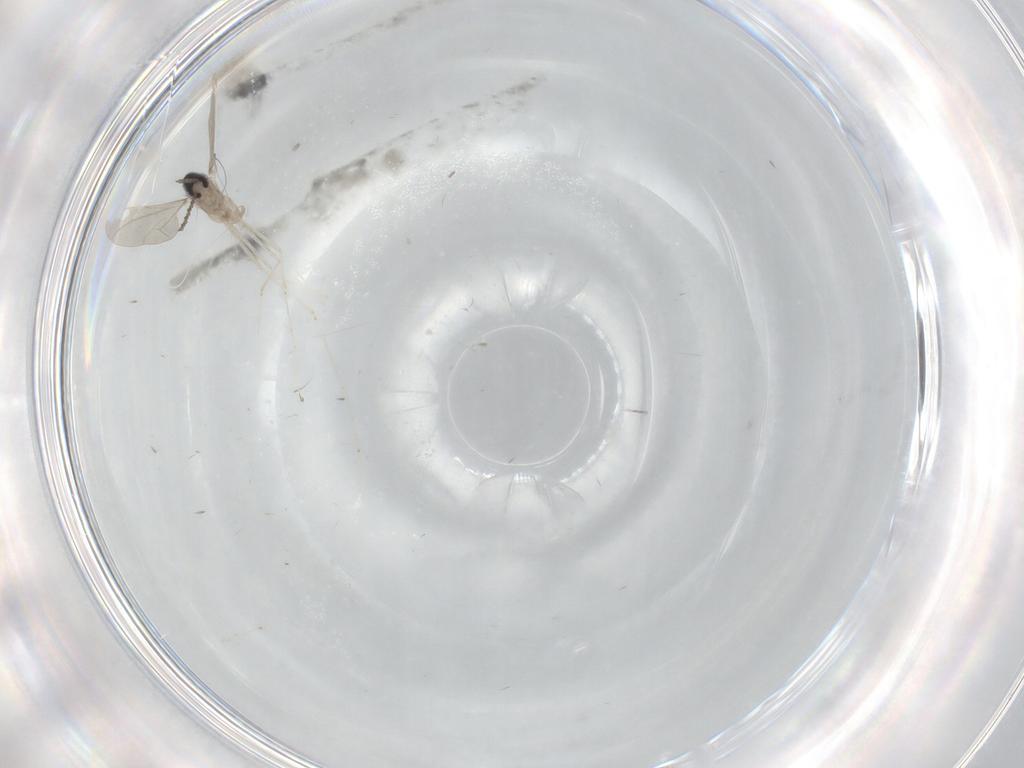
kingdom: Animalia
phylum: Arthropoda
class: Insecta
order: Diptera
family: Cecidomyiidae
